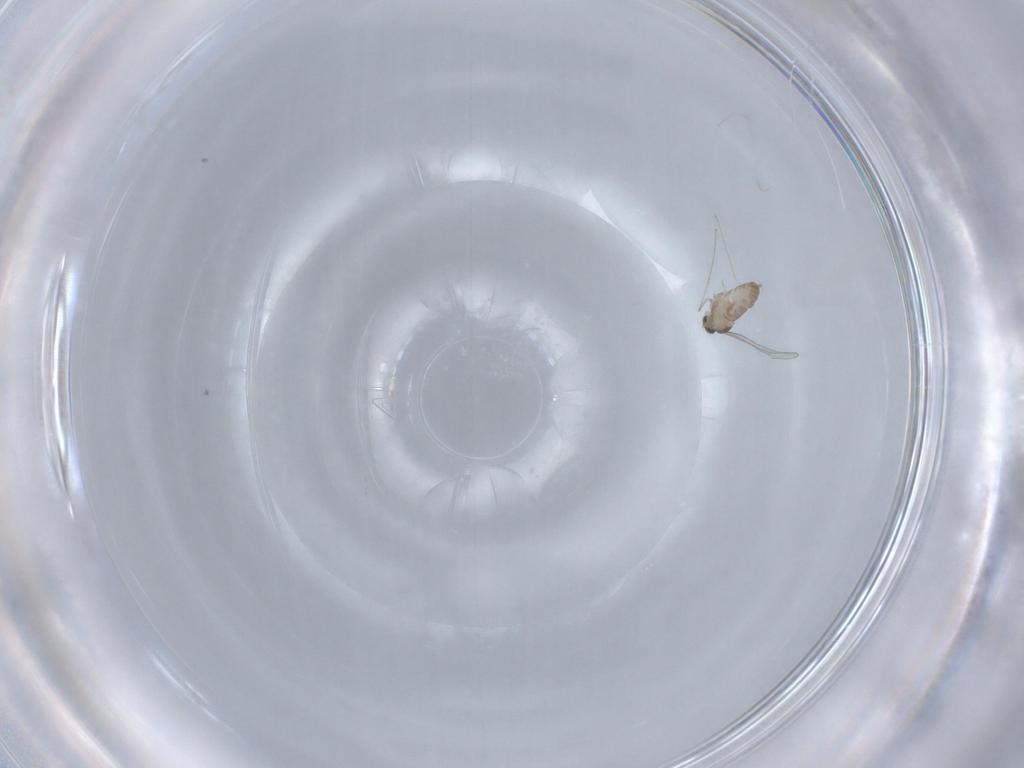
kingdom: Animalia
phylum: Arthropoda
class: Insecta
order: Diptera
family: Cecidomyiidae
